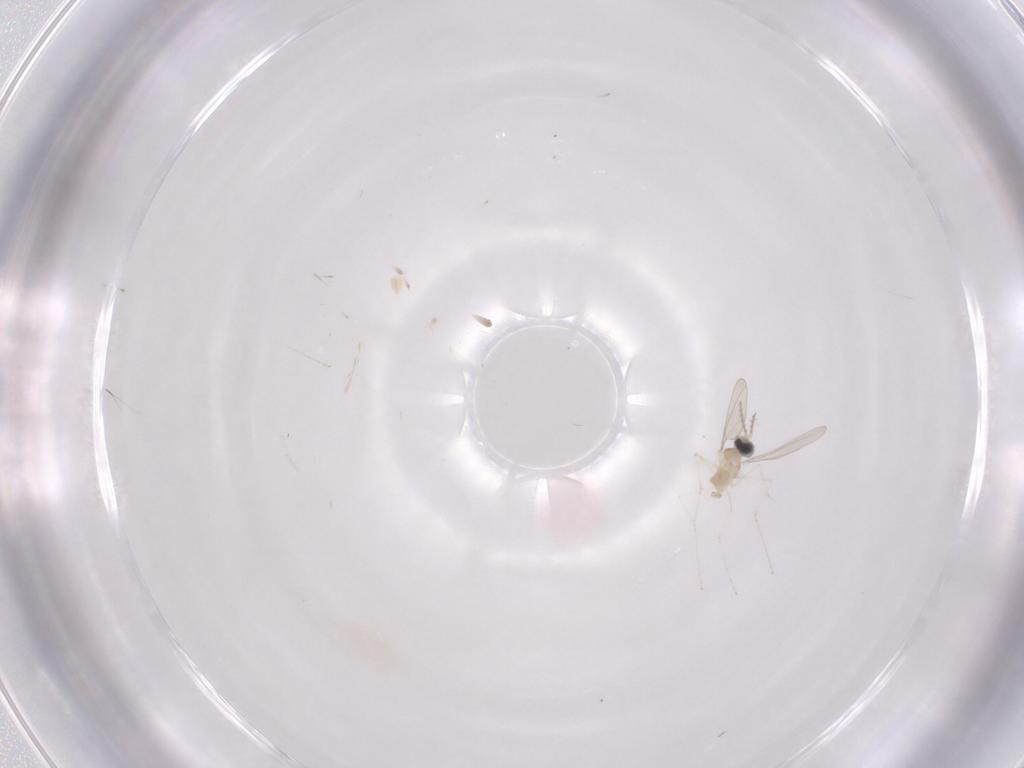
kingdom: Animalia
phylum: Arthropoda
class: Insecta
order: Diptera
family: Cecidomyiidae
